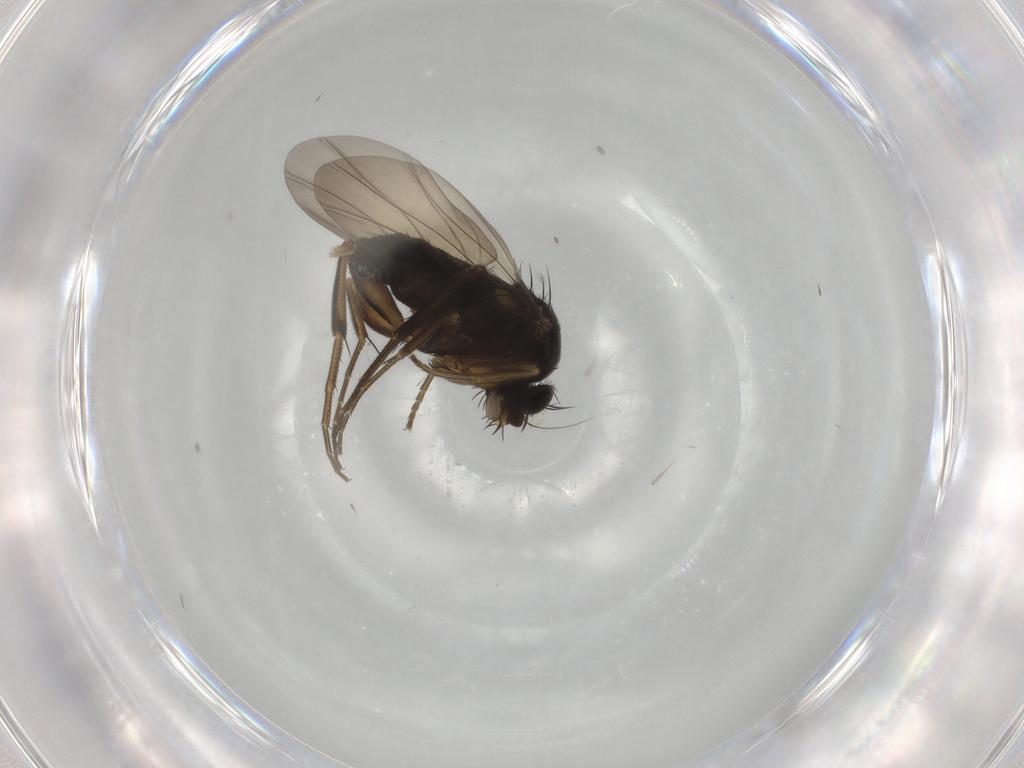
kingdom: Animalia
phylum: Arthropoda
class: Insecta
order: Diptera
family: Phoridae
